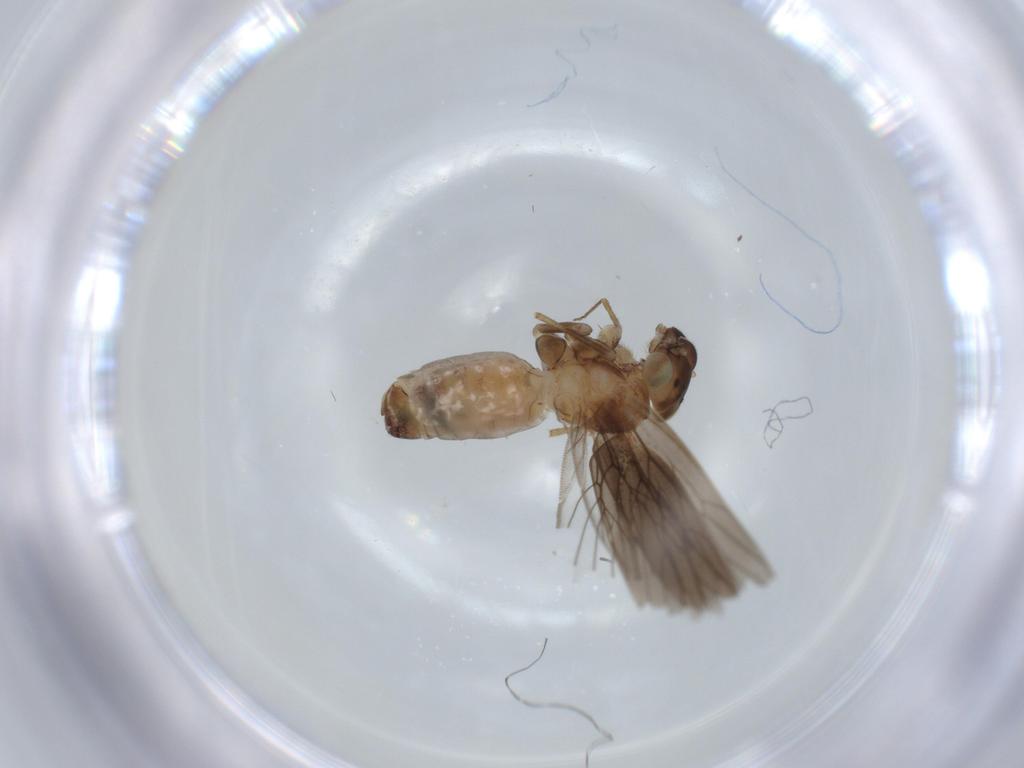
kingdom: Animalia
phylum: Arthropoda
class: Insecta
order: Psocodea
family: Lepidopsocidae
